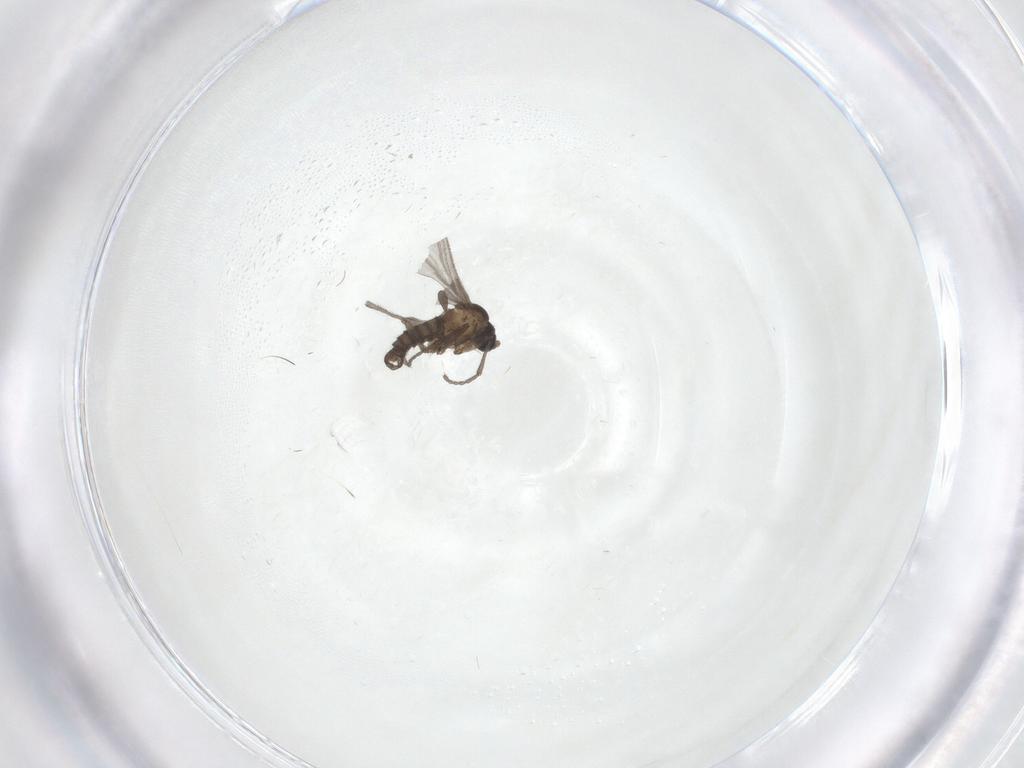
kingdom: Animalia
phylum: Arthropoda
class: Insecta
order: Diptera
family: Sciaridae
